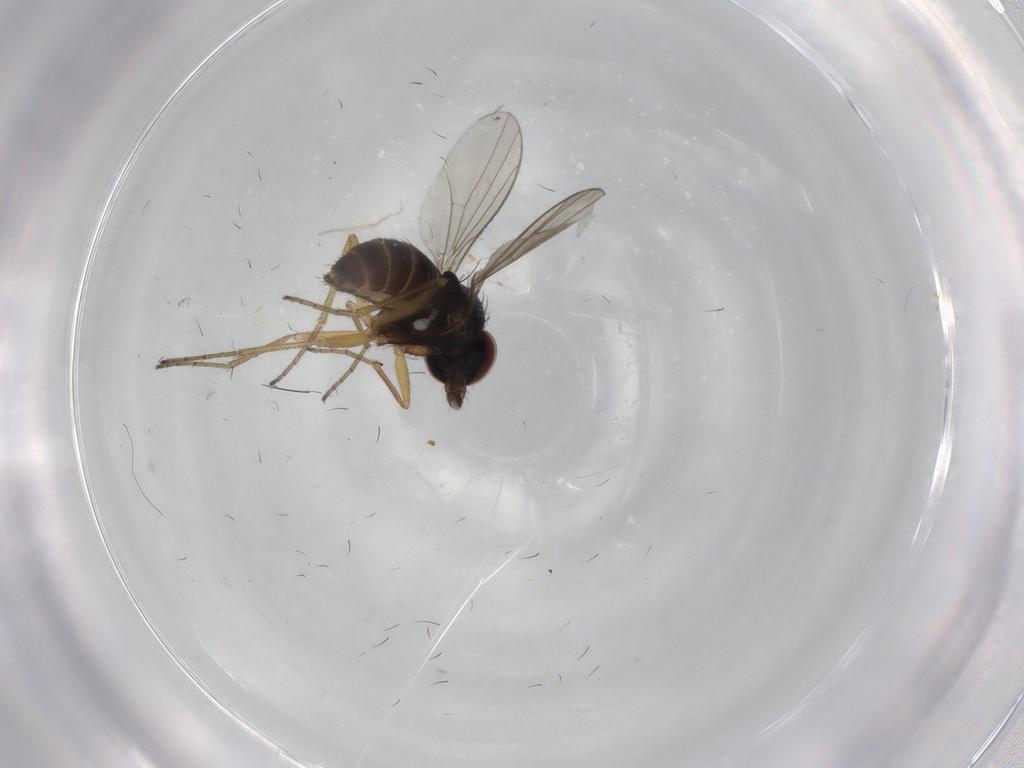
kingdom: Animalia
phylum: Arthropoda
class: Insecta
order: Diptera
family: Dolichopodidae
